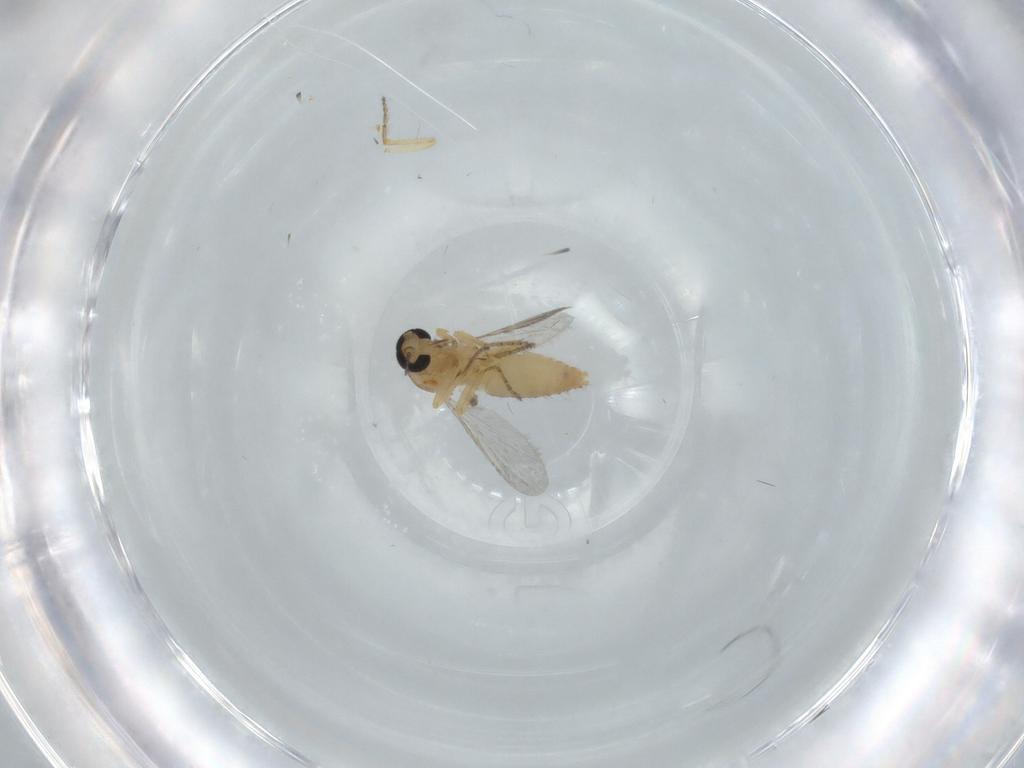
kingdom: Animalia
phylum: Arthropoda
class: Insecta
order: Diptera
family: Ceratopogonidae
